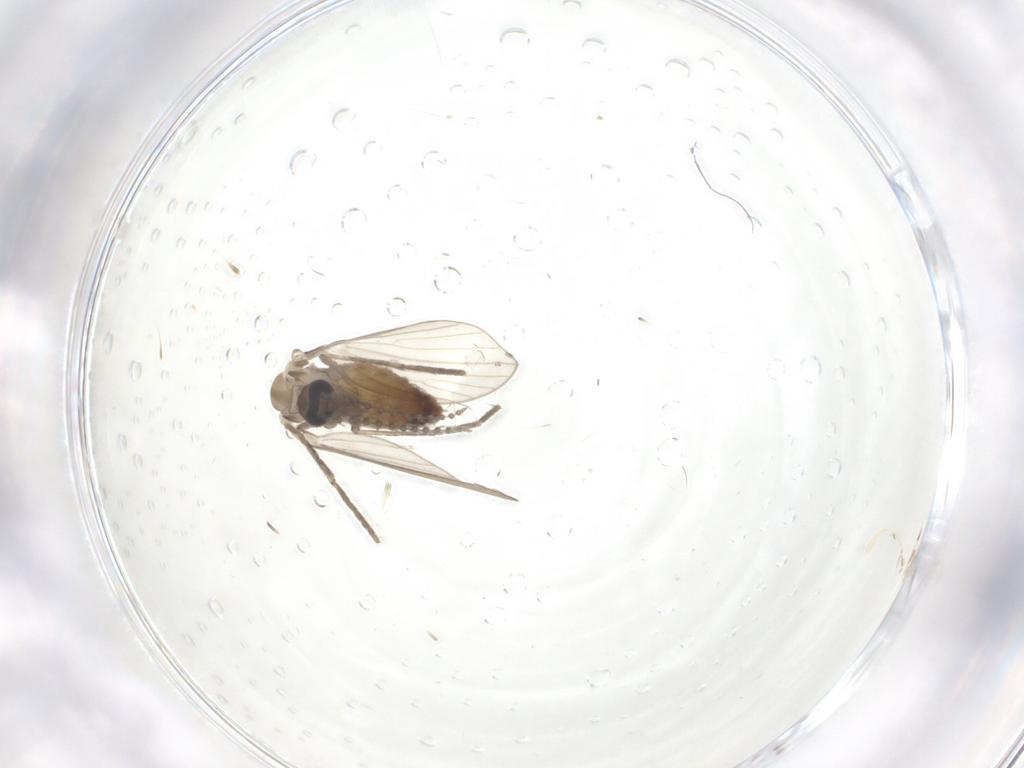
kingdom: Animalia
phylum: Arthropoda
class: Insecta
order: Diptera
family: Psychodidae
